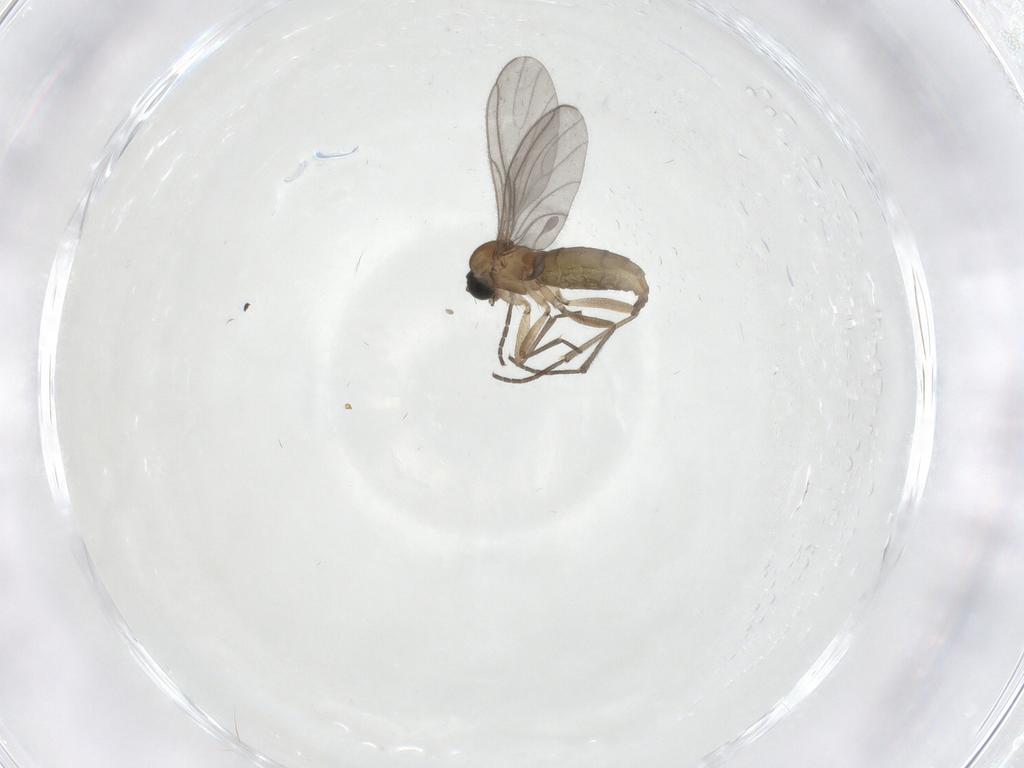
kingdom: Animalia
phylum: Arthropoda
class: Insecta
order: Diptera
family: Sciaridae
